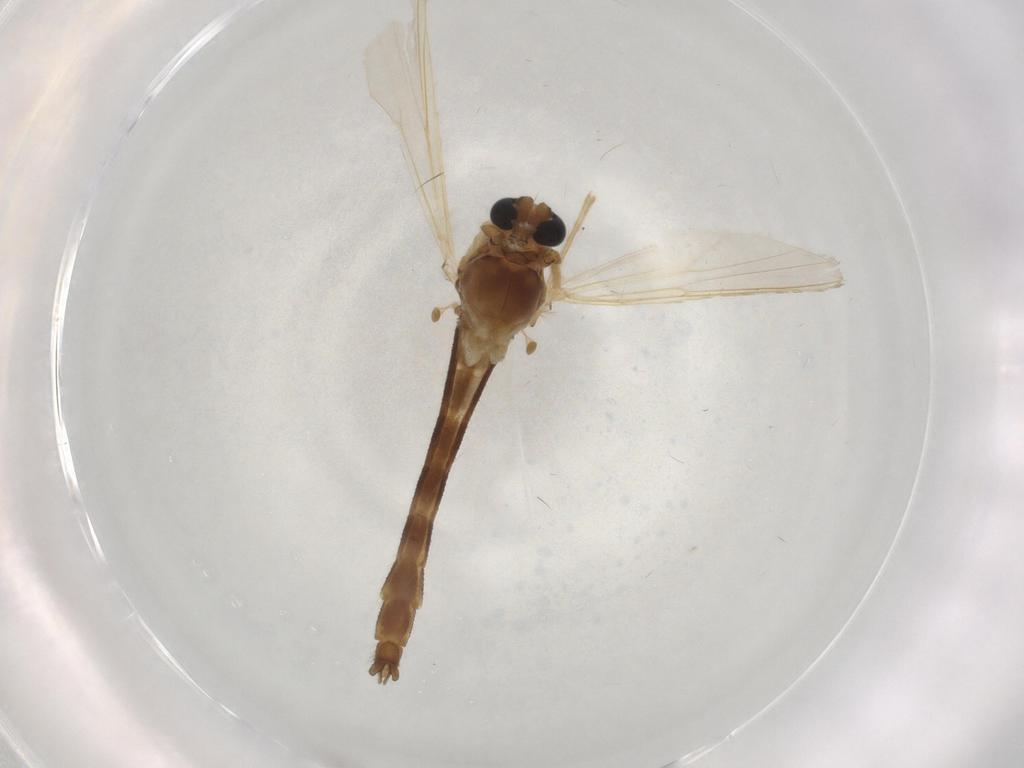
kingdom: Animalia
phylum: Arthropoda
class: Insecta
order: Diptera
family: Chironomidae
